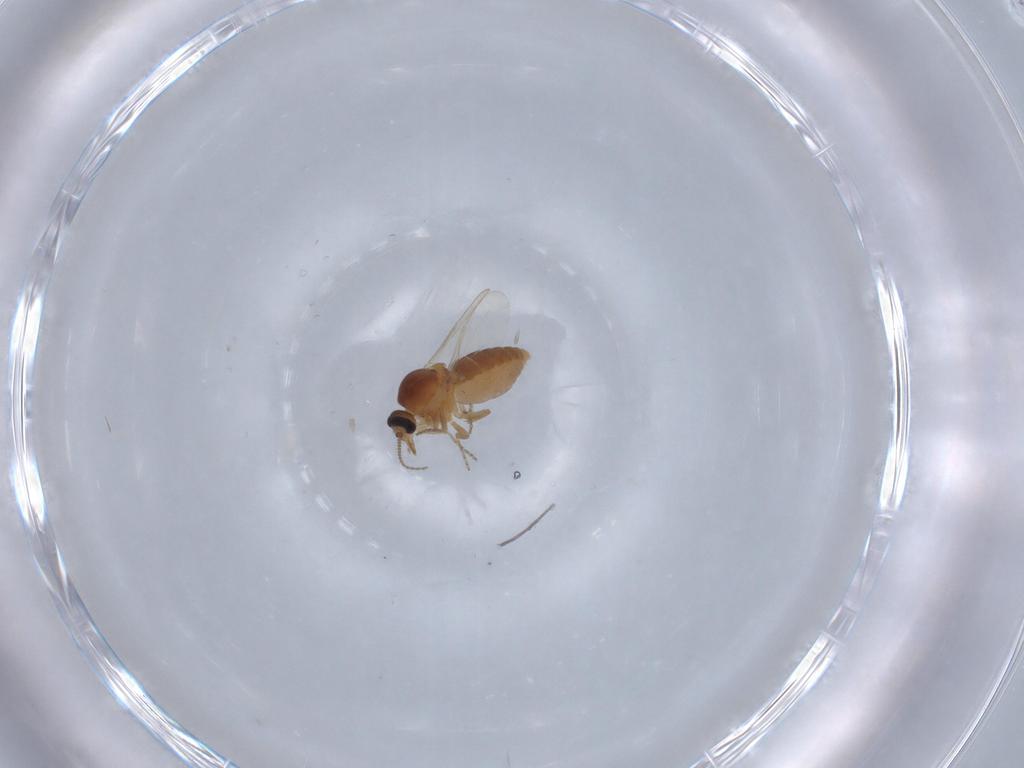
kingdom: Animalia
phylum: Arthropoda
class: Insecta
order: Diptera
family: Ceratopogonidae
